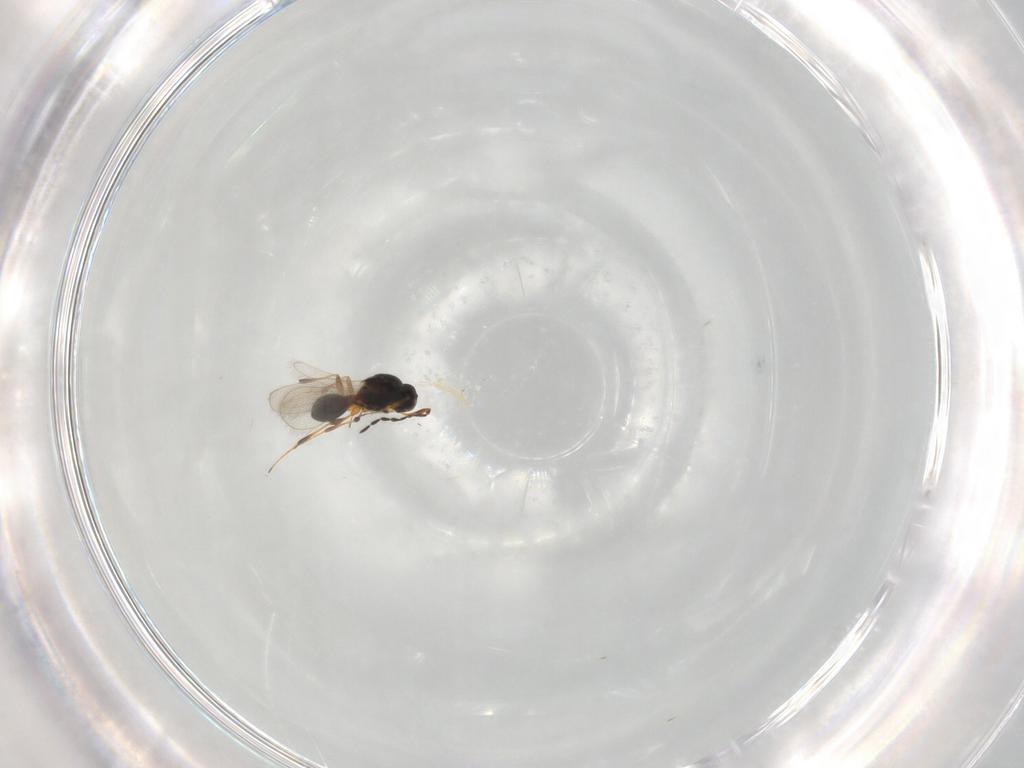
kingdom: Animalia
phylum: Arthropoda
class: Insecta
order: Hymenoptera
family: Platygastridae
